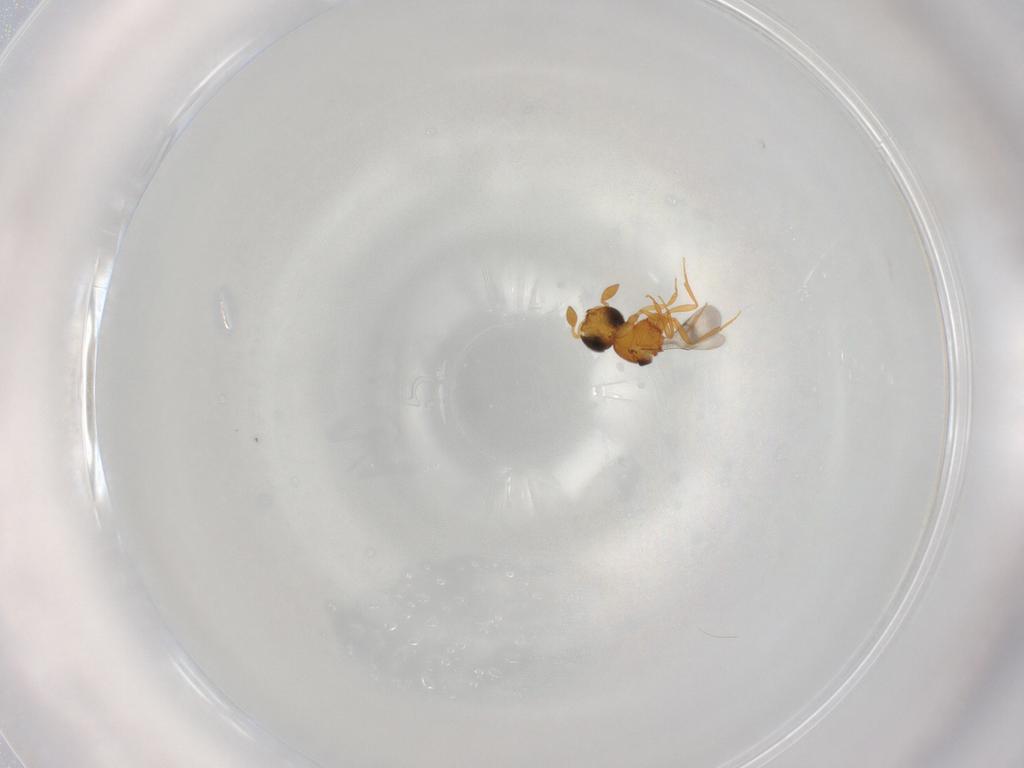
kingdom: Animalia
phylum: Arthropoda
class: Insecta
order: Hymenoptera
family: Scelionidae
